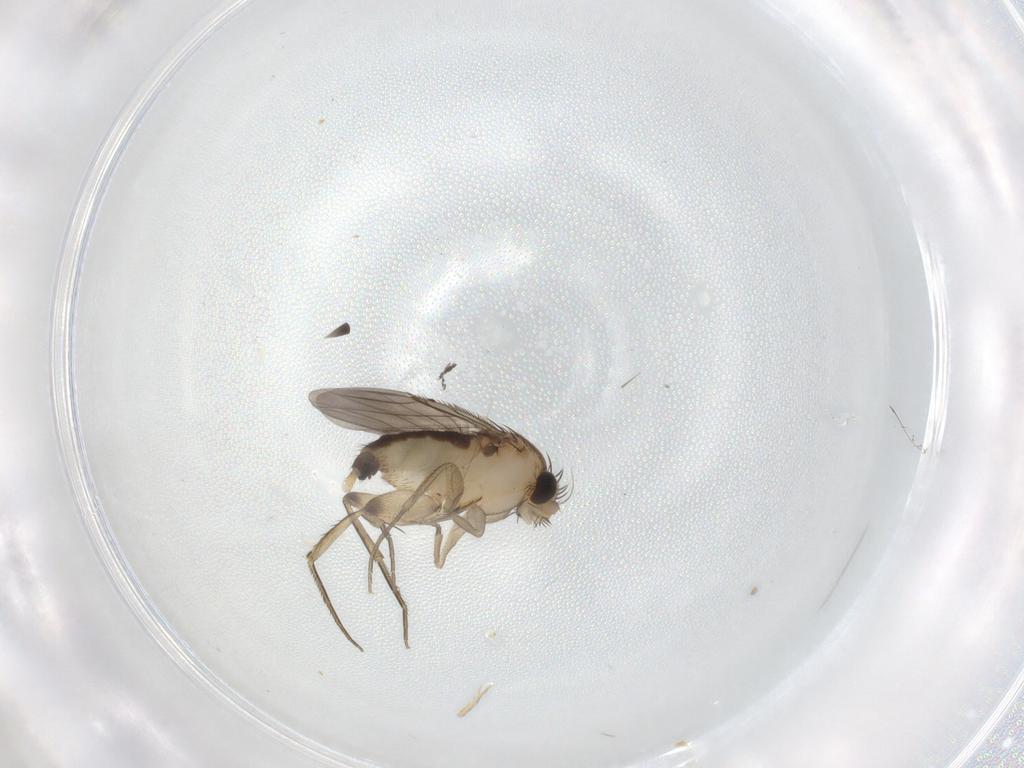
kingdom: Animalia
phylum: Arthropoda
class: Insecta
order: Diptera
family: Phoridae
